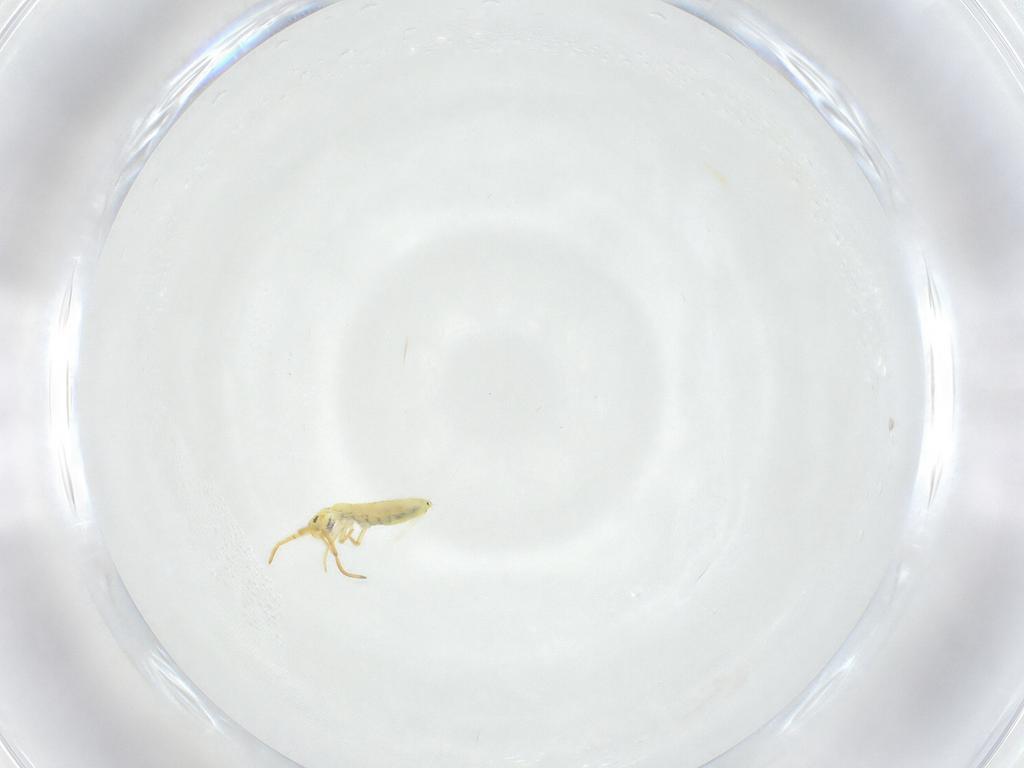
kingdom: Animalia
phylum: Arthropoda
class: Collembola
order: Entomobryomorpha
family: Entomobryidae
